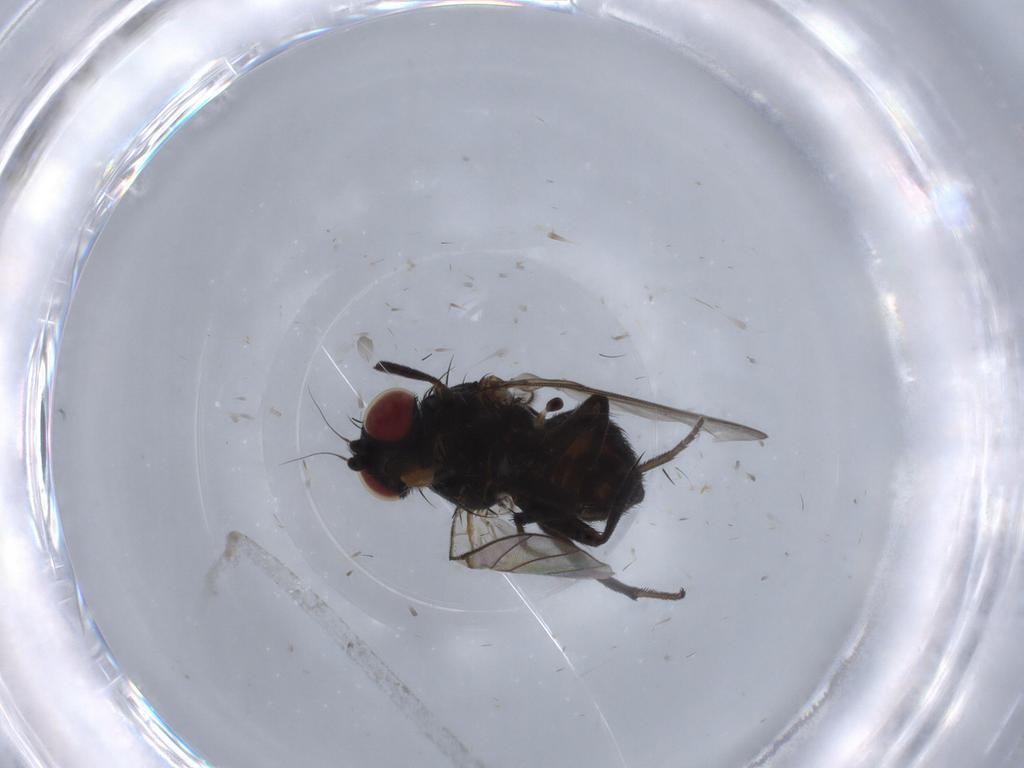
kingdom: Animalia
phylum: Arthropoda
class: Insecta
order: Diptera
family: Agromyzidae
